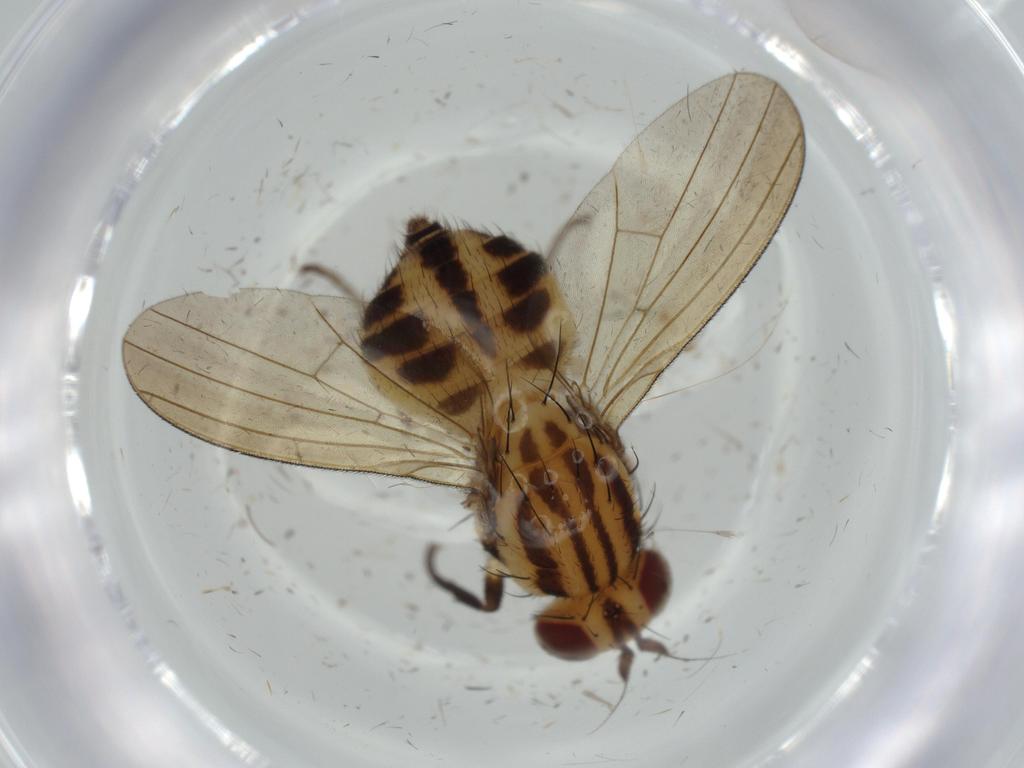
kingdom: Animalia
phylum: Arthropoda
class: Insecta
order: Diptera
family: Lauxaniidae
